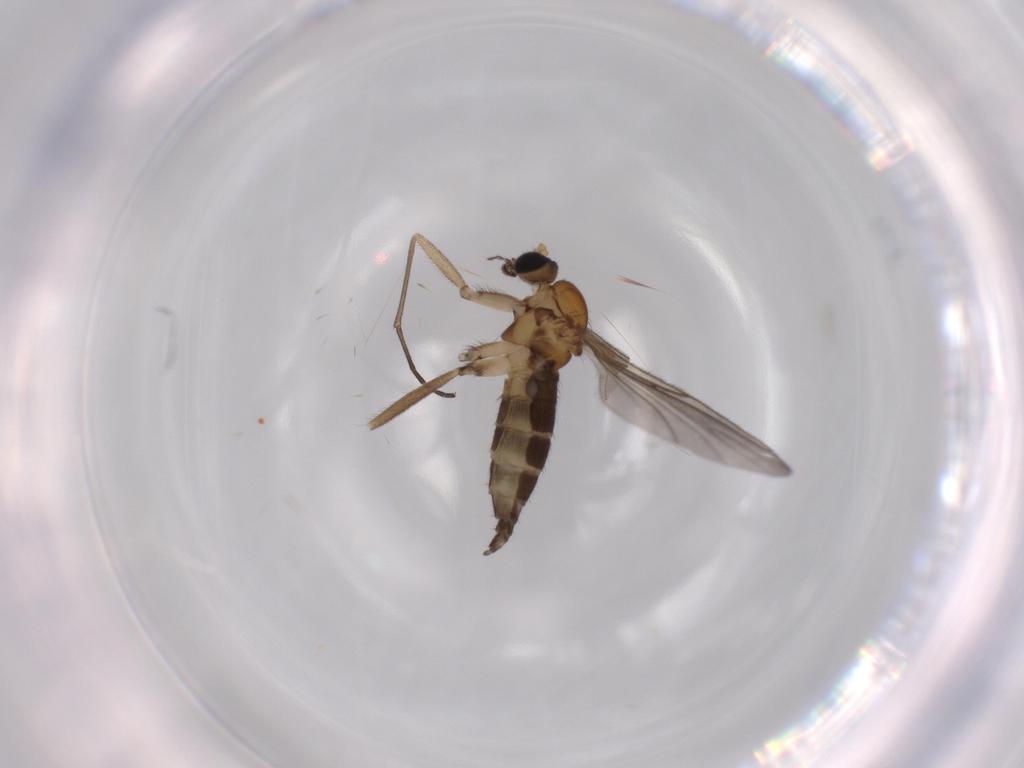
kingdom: Animalia
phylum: Arthropoda
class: Insecta
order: Diptera
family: Sciaridae
